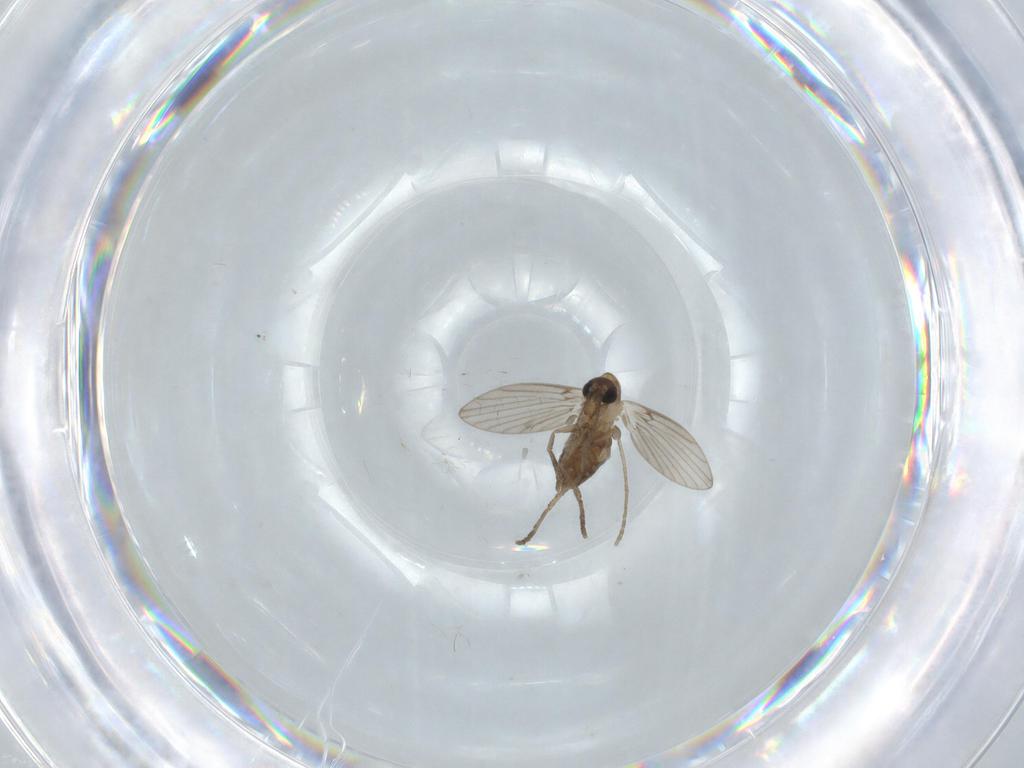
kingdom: Animalia
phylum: Arthropoda
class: Insecta
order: Diptera
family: Psychodidae
